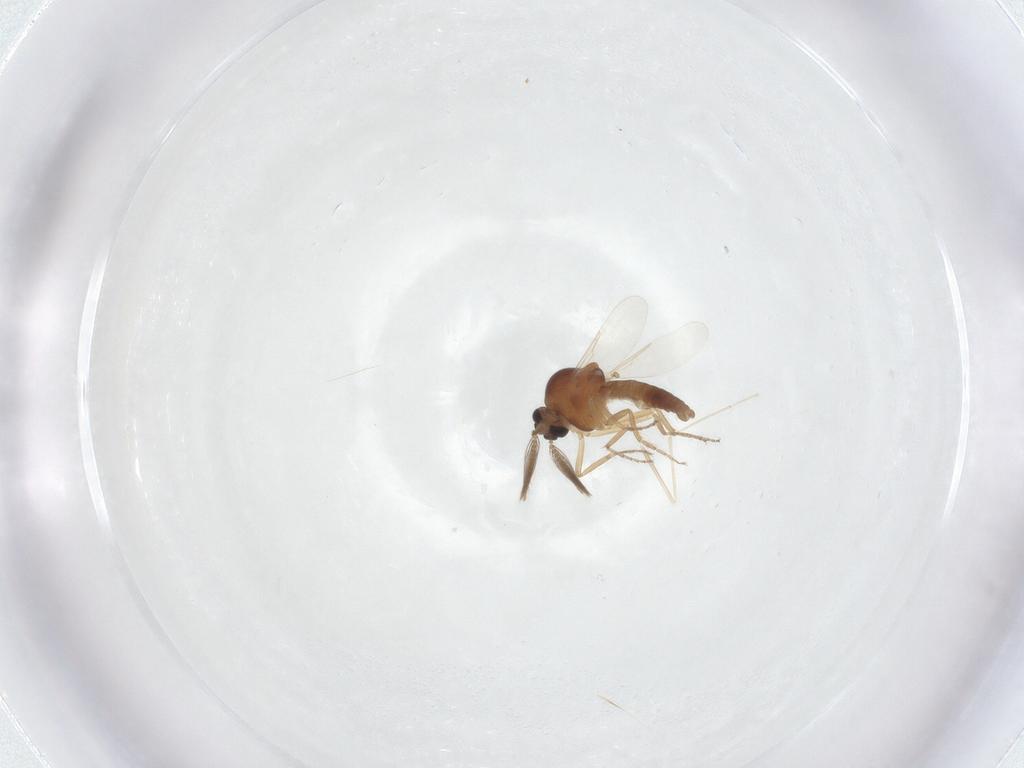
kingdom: Animalia
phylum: Arthropoda
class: Insecta
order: Diptera
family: Ceratopogonidae
